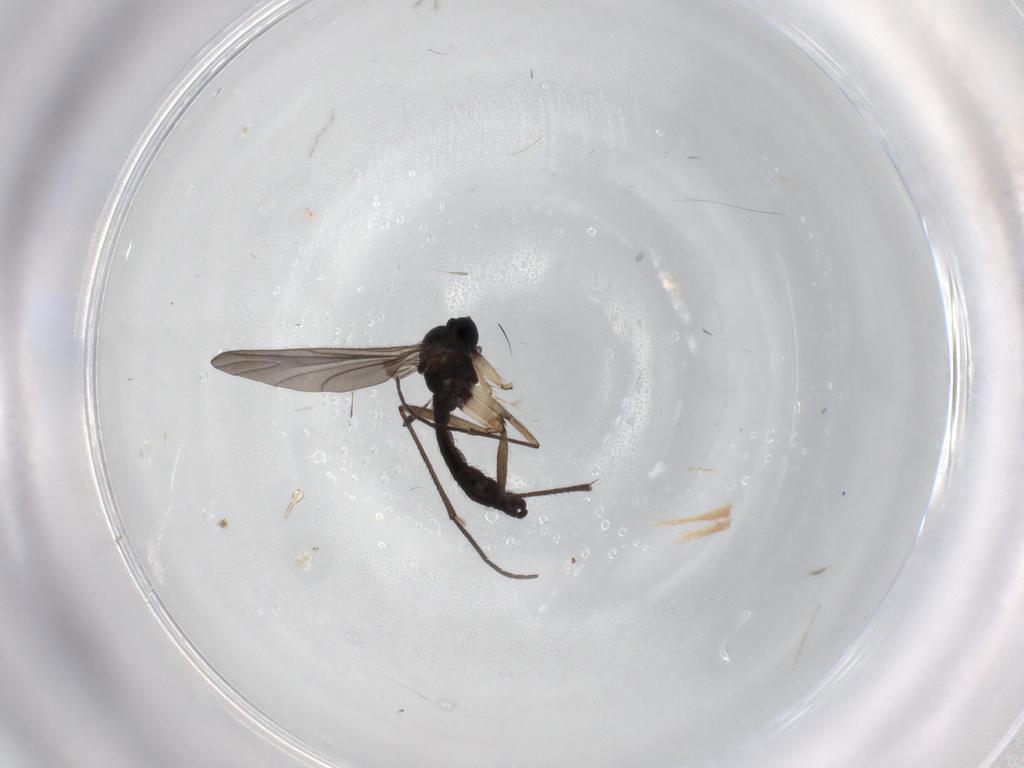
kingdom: Animalia
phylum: Arthropoda
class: Insecta
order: Diptera
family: Sciaridae
